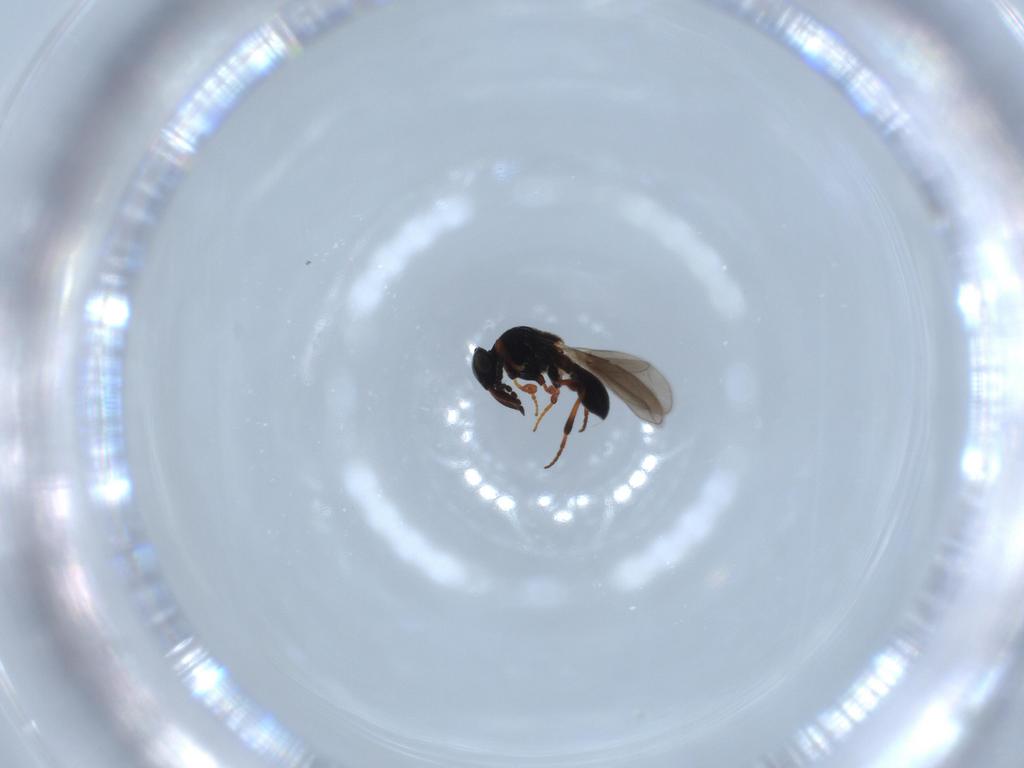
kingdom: Animalia
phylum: Arthropoda
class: Insecta
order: Hymenoptera
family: Platygastridae
